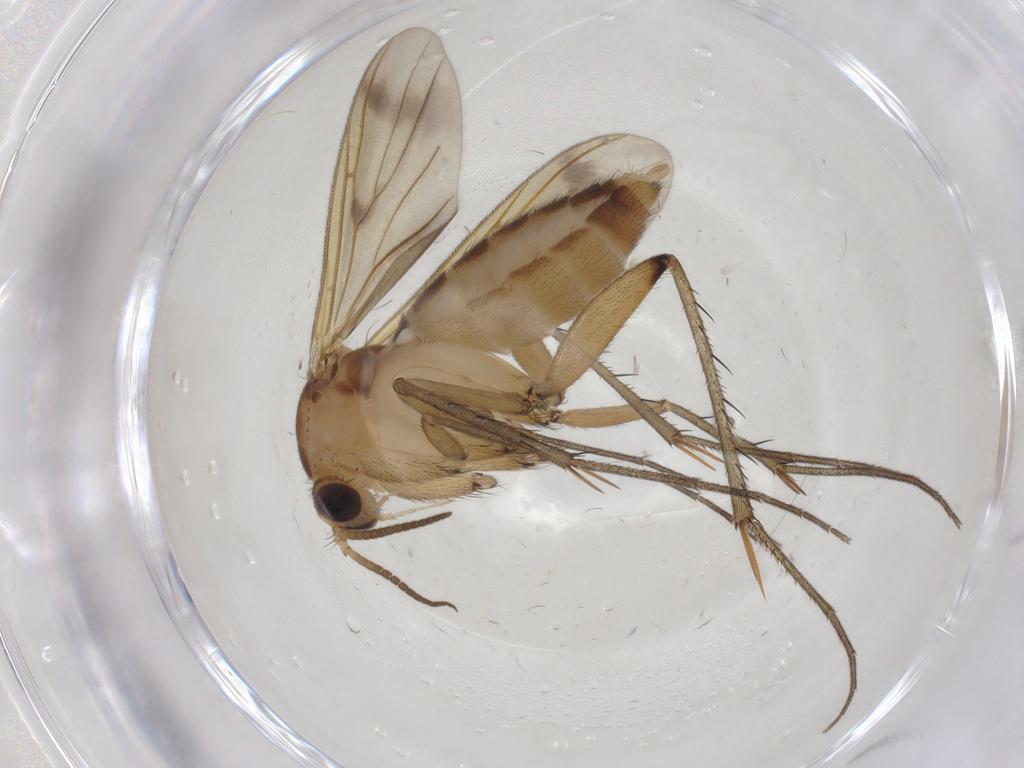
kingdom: Animalia
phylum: Arthropoda
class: Insecta
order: Diptera
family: Mycetophilidae
